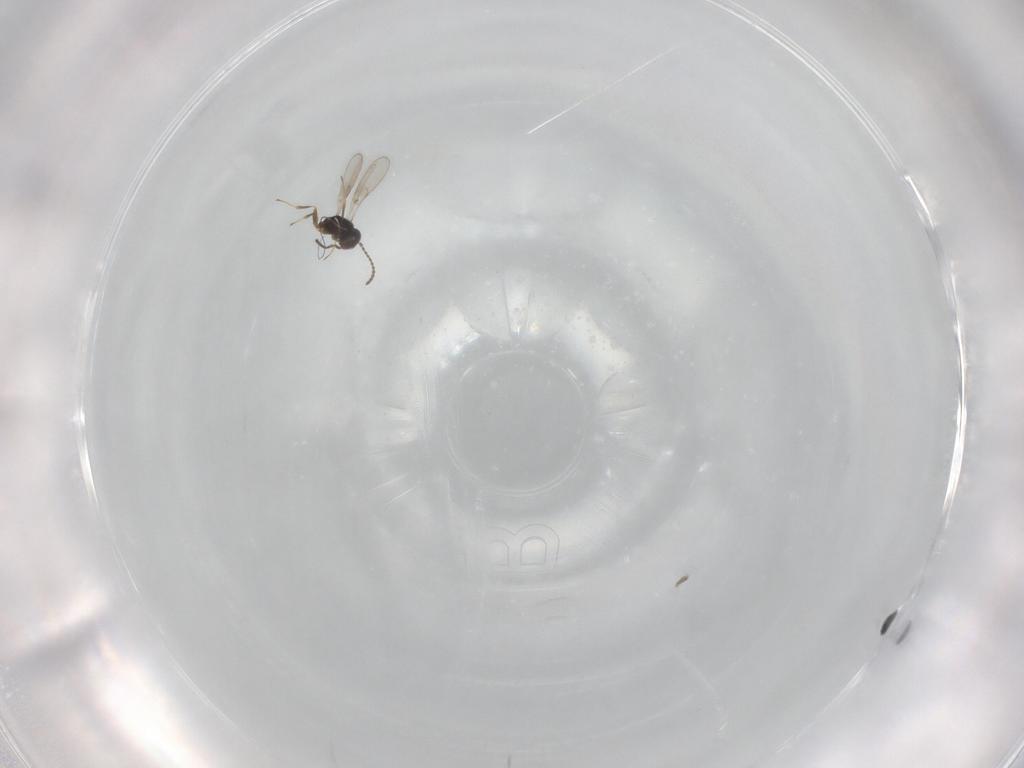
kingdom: Animalia
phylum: Arthropoda
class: Insecta
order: Hymenoptera
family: Scelionidae
